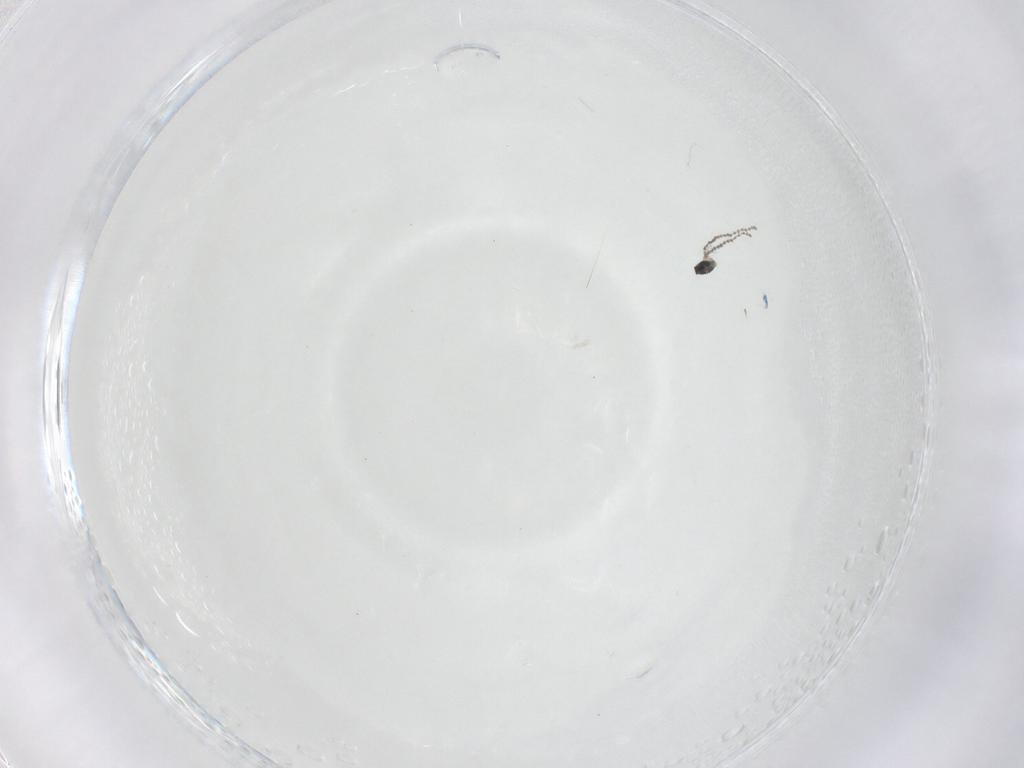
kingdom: Animalia
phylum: Arthropoda
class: Insecta
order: Diptera
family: Cecidomyiidae
